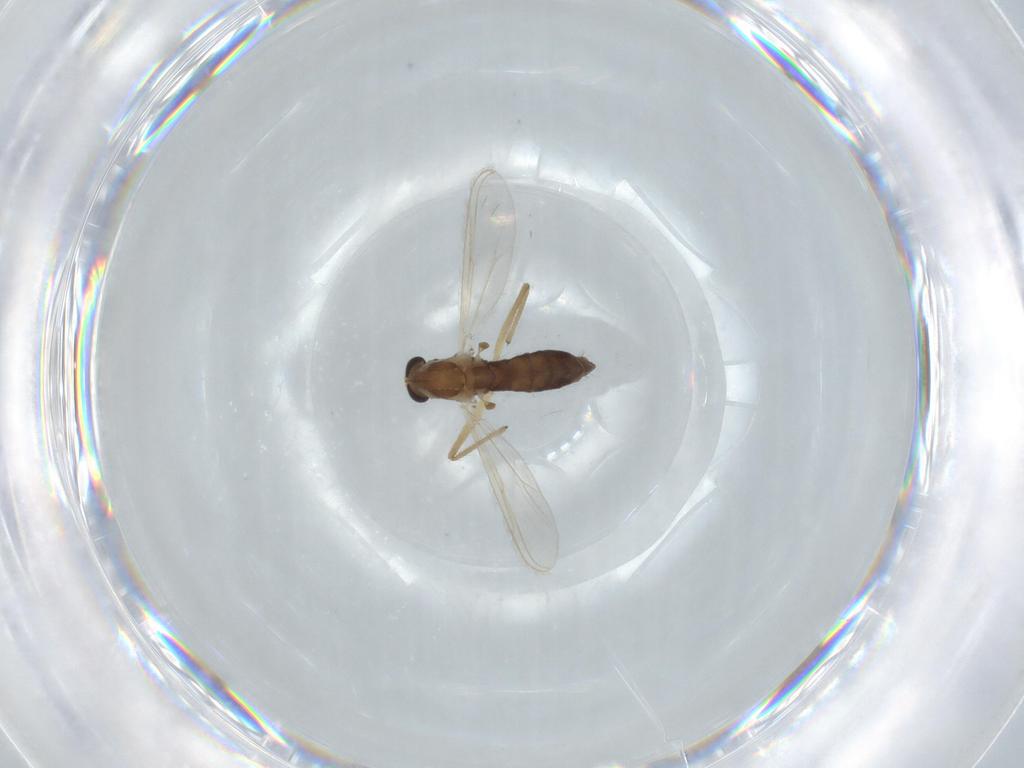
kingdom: Animalia
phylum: Arthropoda
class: Insecta
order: Diptera
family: Chironomidae
